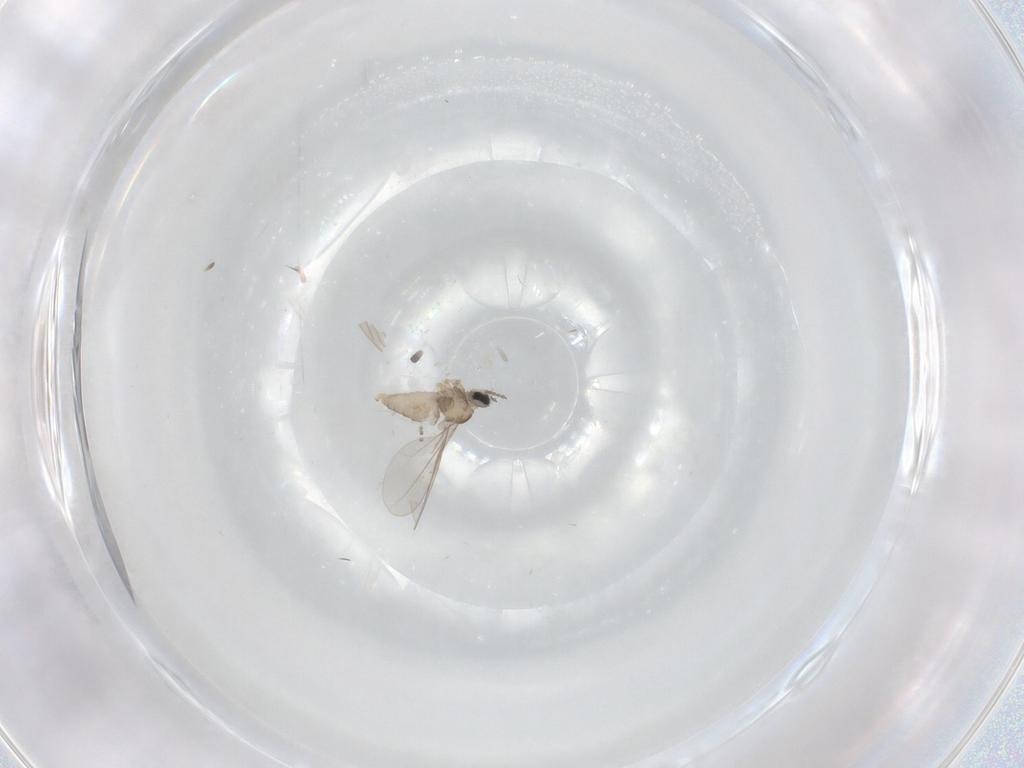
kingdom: Animalia
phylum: Arthropoda
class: Insecta
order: Diptera
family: Cecidomyiidae
